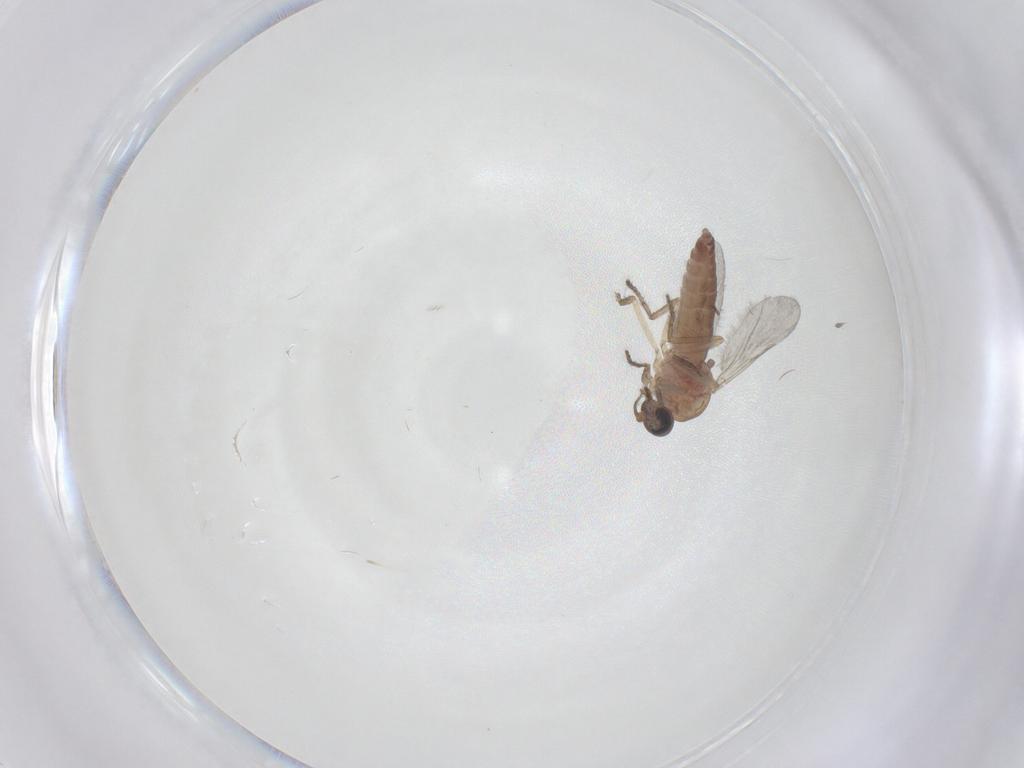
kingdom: Animalia
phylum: Arthropoda
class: Insecta
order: Diptera
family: Ceratopogonidae
